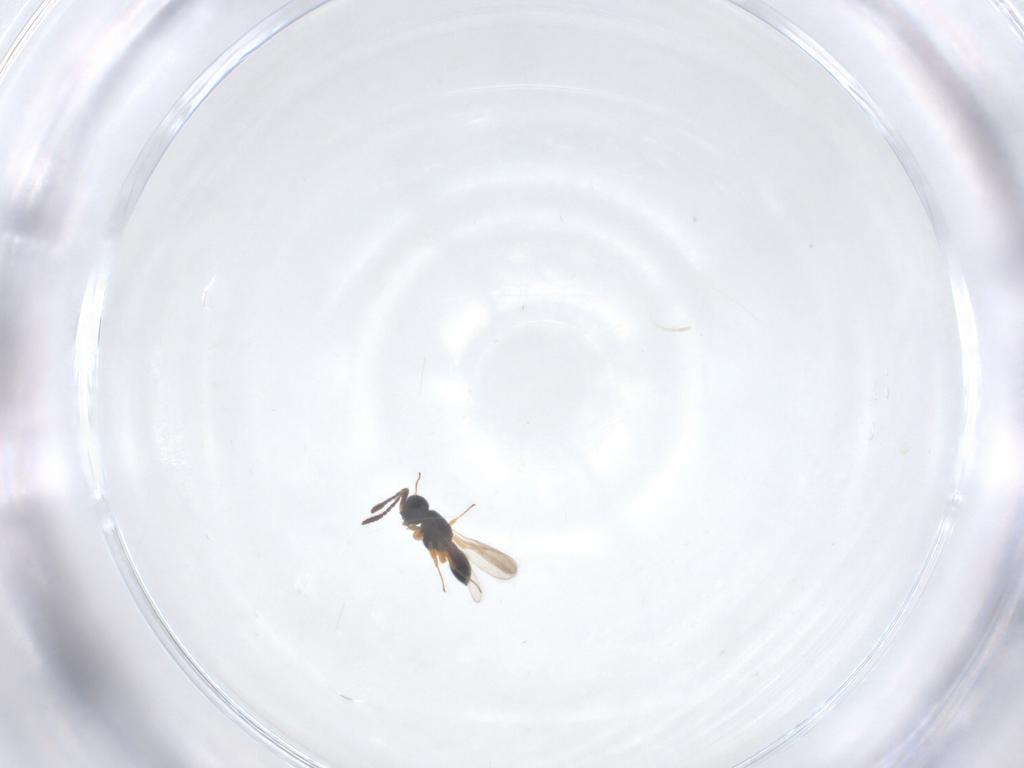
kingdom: Animalia
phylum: Arthropoda
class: Insecta
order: Hymenoptera
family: Scelionidae
